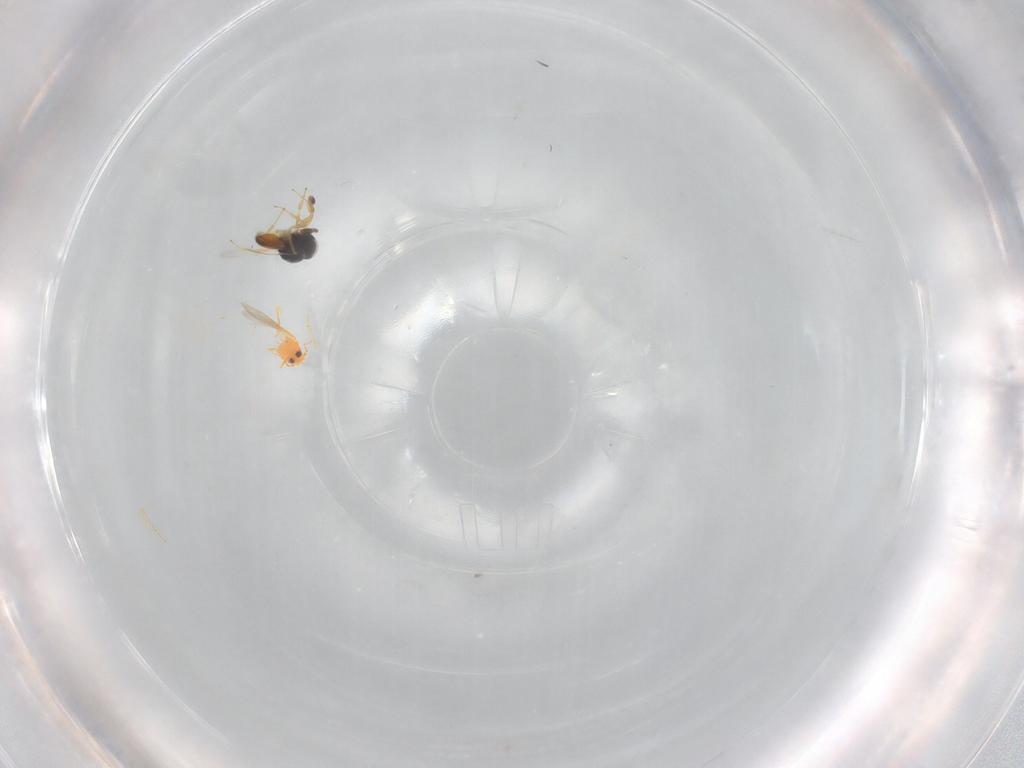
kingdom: Animalia
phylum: Arthropoda
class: Insecta
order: Hymenoptera
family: Scelionidae
